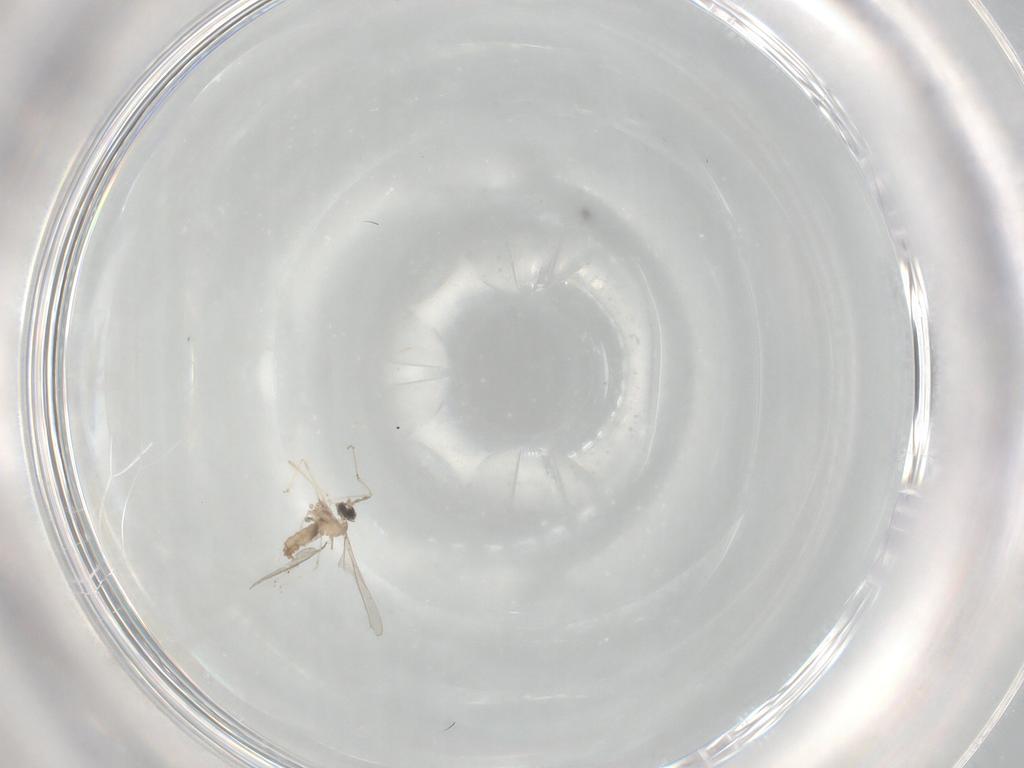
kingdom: Animalia
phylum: Arthropoda
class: Insecta
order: Diptera
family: Cecidomyiidae
